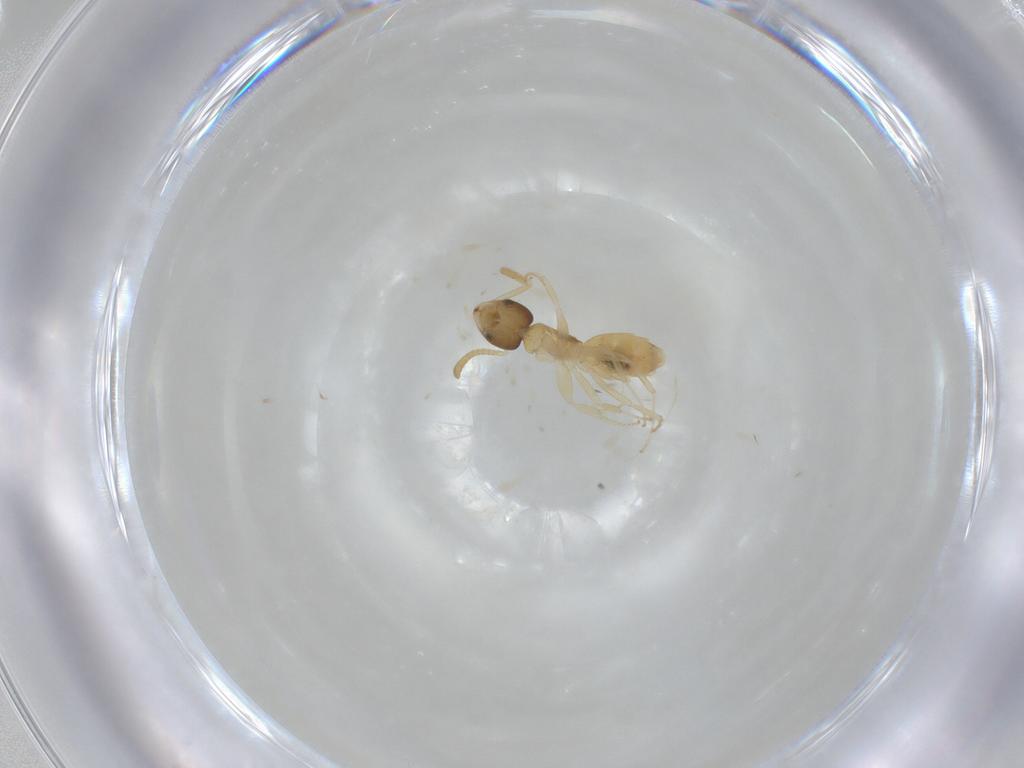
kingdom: Animalia
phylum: Arthropoda
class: Insecta
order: Hymenoptera
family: Formicidae
